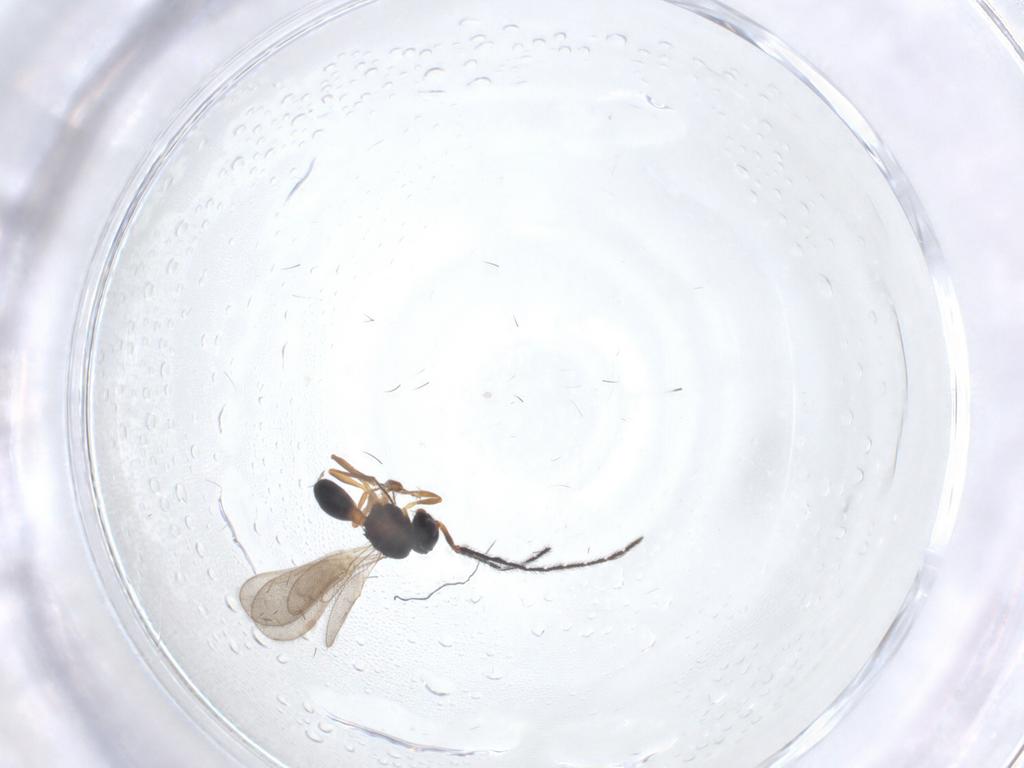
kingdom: Animalia
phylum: Arthropoda
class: Insecta
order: Hymenoptera
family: Scelionidae
